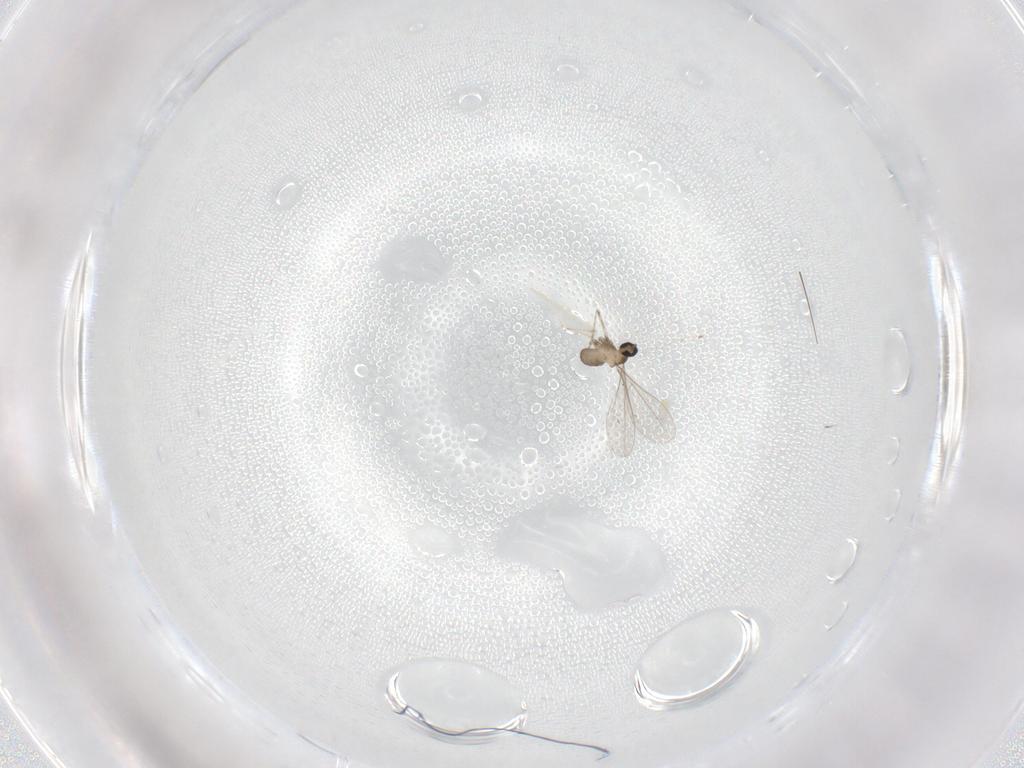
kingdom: Animalia
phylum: Arthropoda
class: Insecta
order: Diptera
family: Cecidomyiidae
